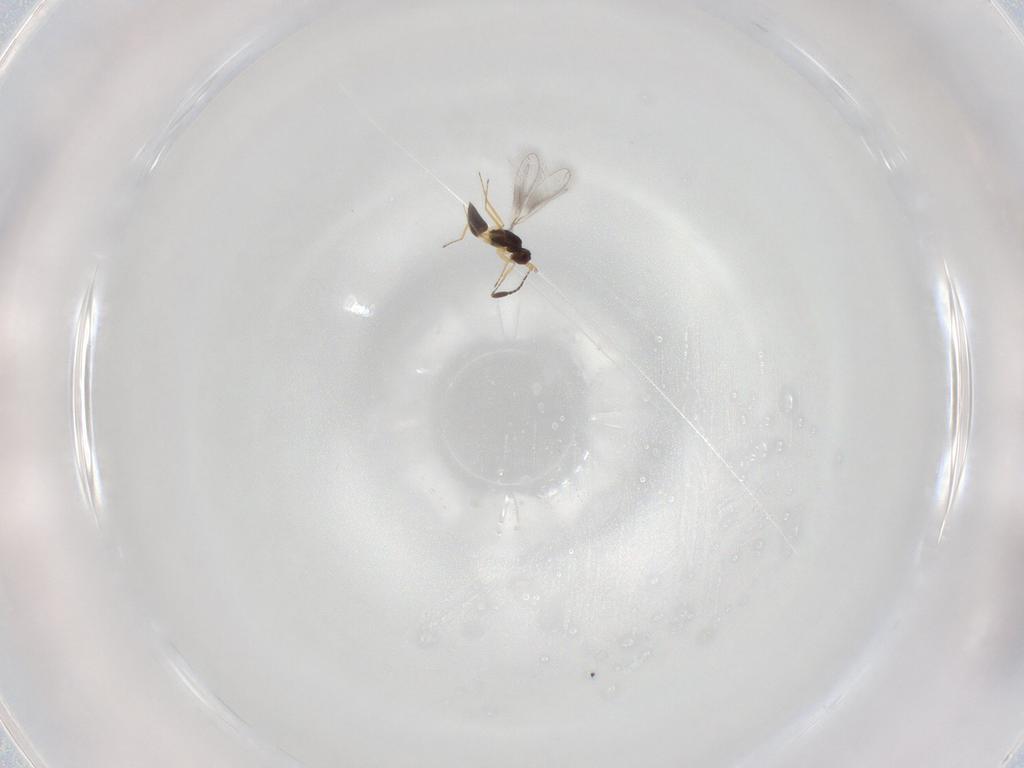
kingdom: Animalia
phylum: Arthropoda
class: Insecta
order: Hymenoptera
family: Mymaridae
